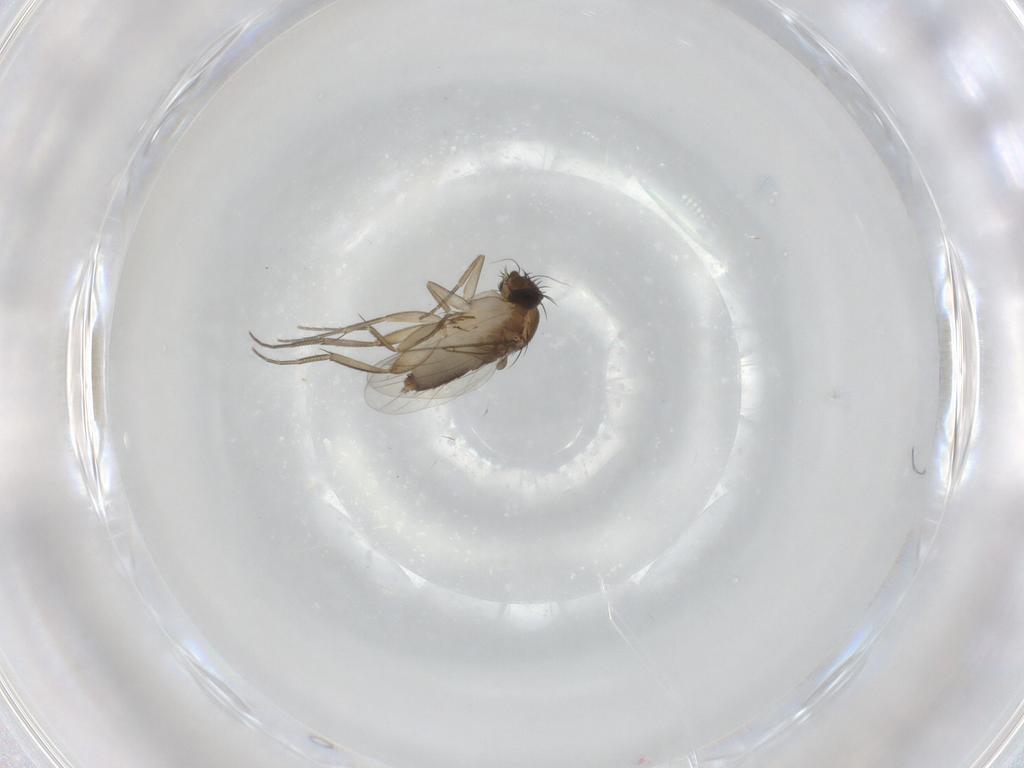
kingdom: Animalia
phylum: Arthropoda
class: Insecta
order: Diptera
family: Phoridae
